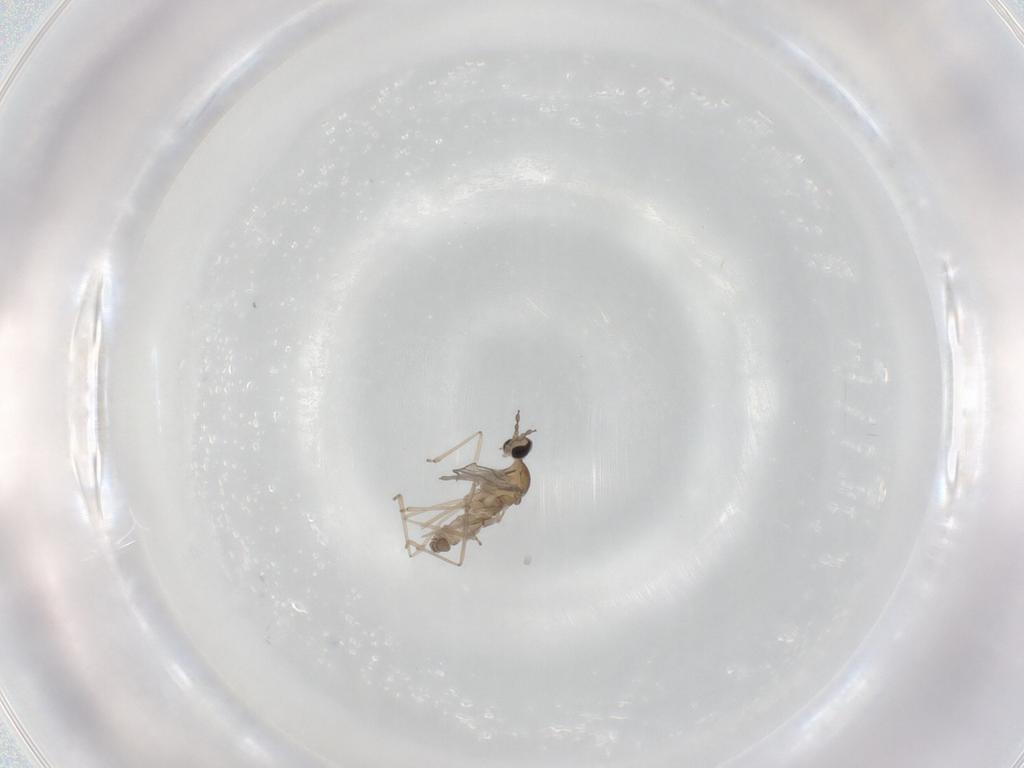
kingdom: Animalia
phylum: Arthropoda
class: Insecta
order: Diptera
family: Cecidomyiidae
